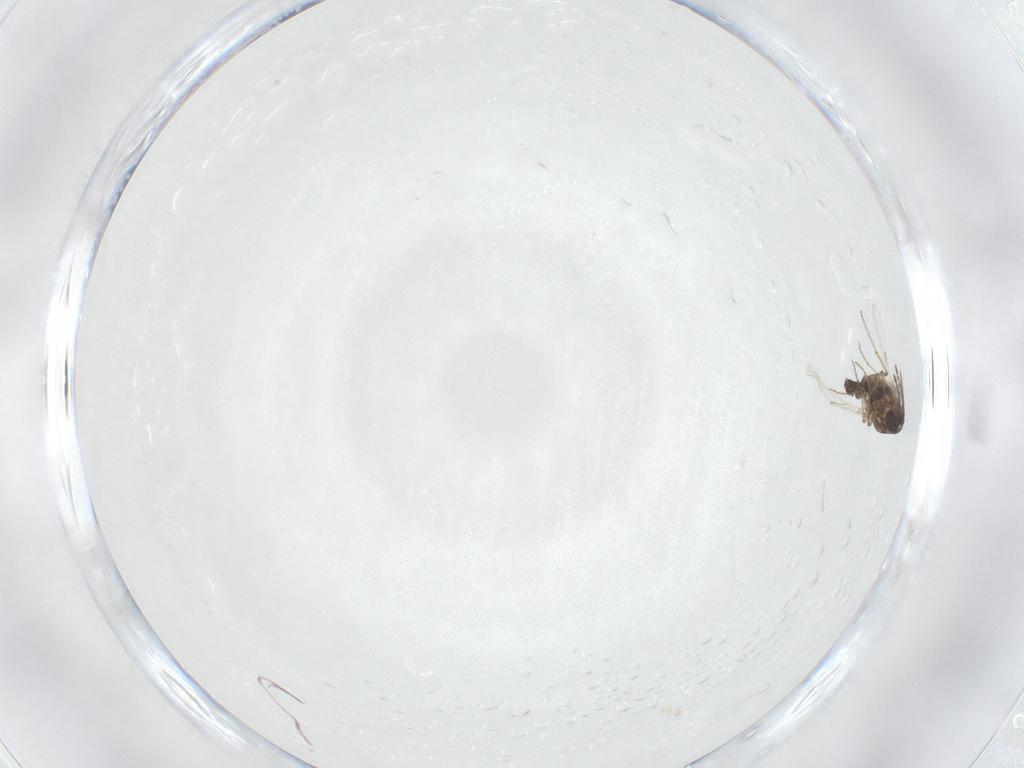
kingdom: Animalia
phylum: Arthropoda
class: Insecta
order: Diptera
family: Ceratopogonidae
